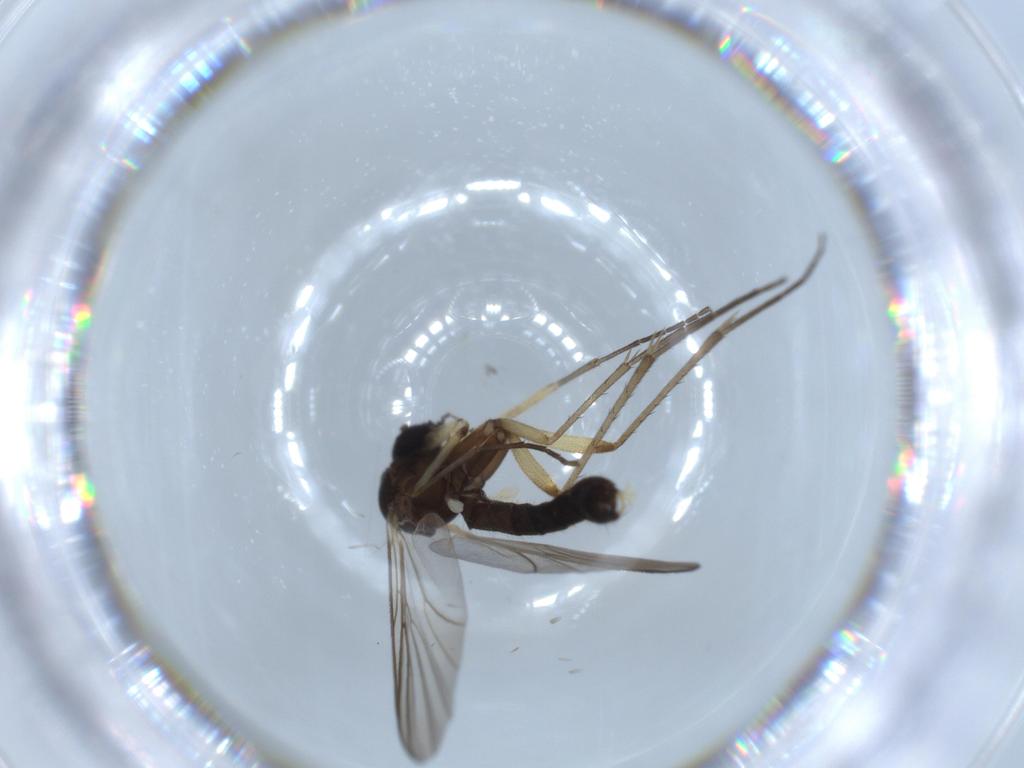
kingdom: Animalia
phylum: Arthropoda
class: Insecta
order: Diptera
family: Mycetophilidae
